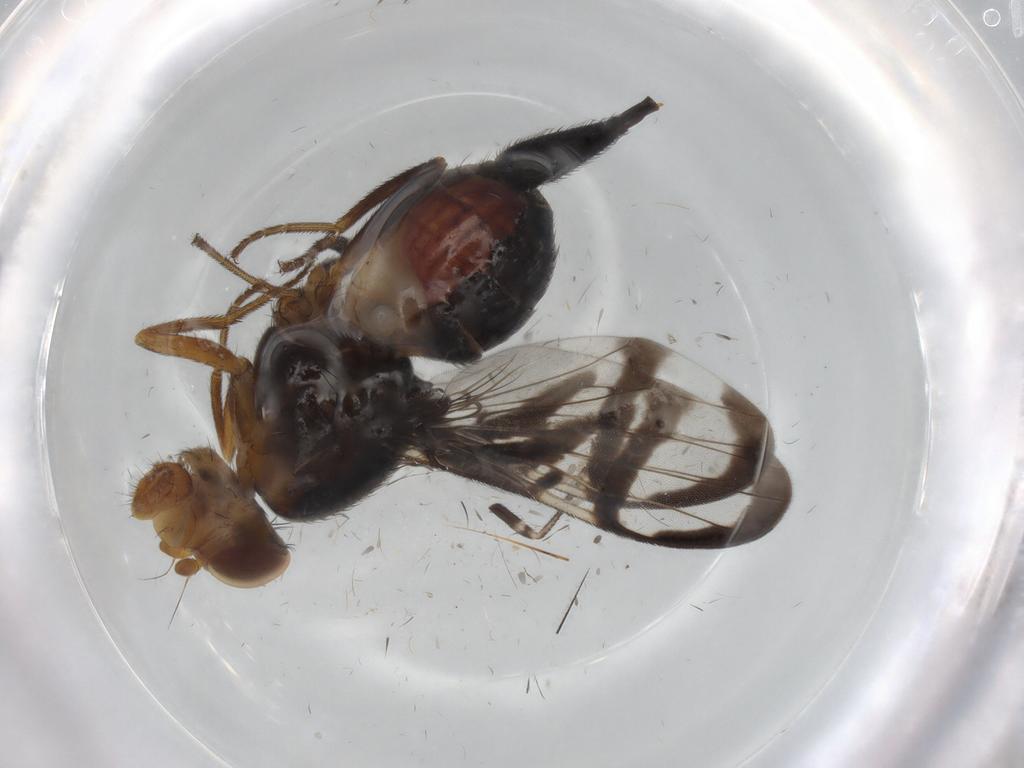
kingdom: Animalia
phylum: Arthropoda
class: Insecta
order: Diptera
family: Ulidiidae
